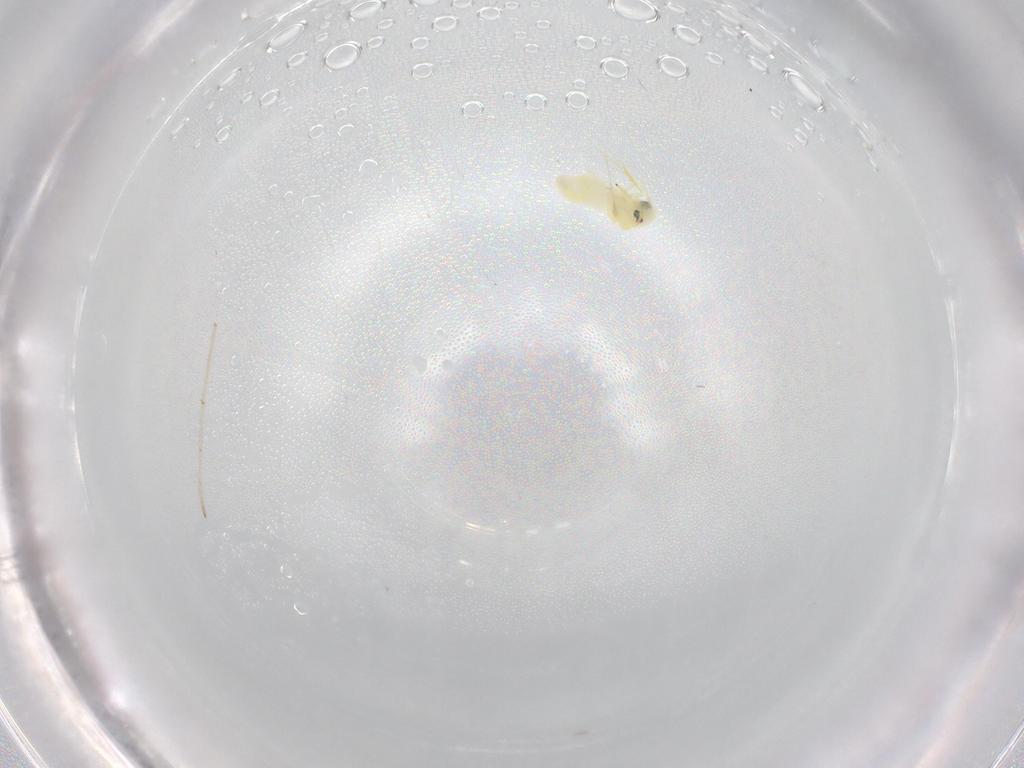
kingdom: Animalia
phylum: Arthropoda
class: Insecta
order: Hemiptera
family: Aleyrodidae
